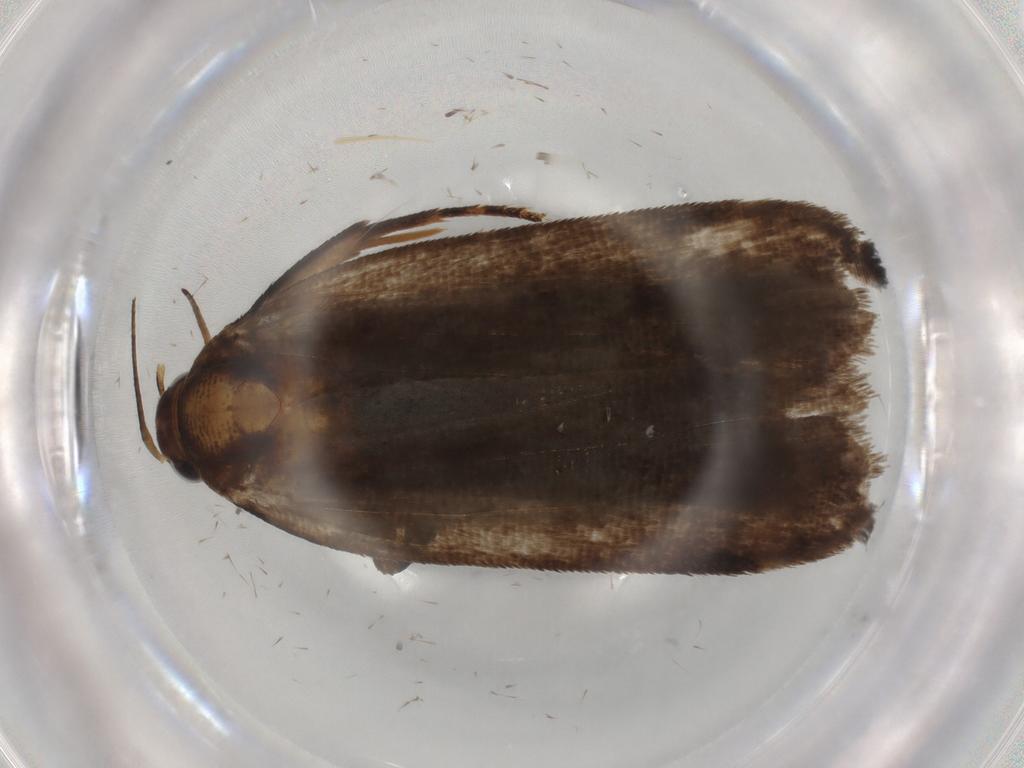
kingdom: Animalia
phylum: Arthropoda
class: Insecta
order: Lepidoptera
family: Gelechiidae
